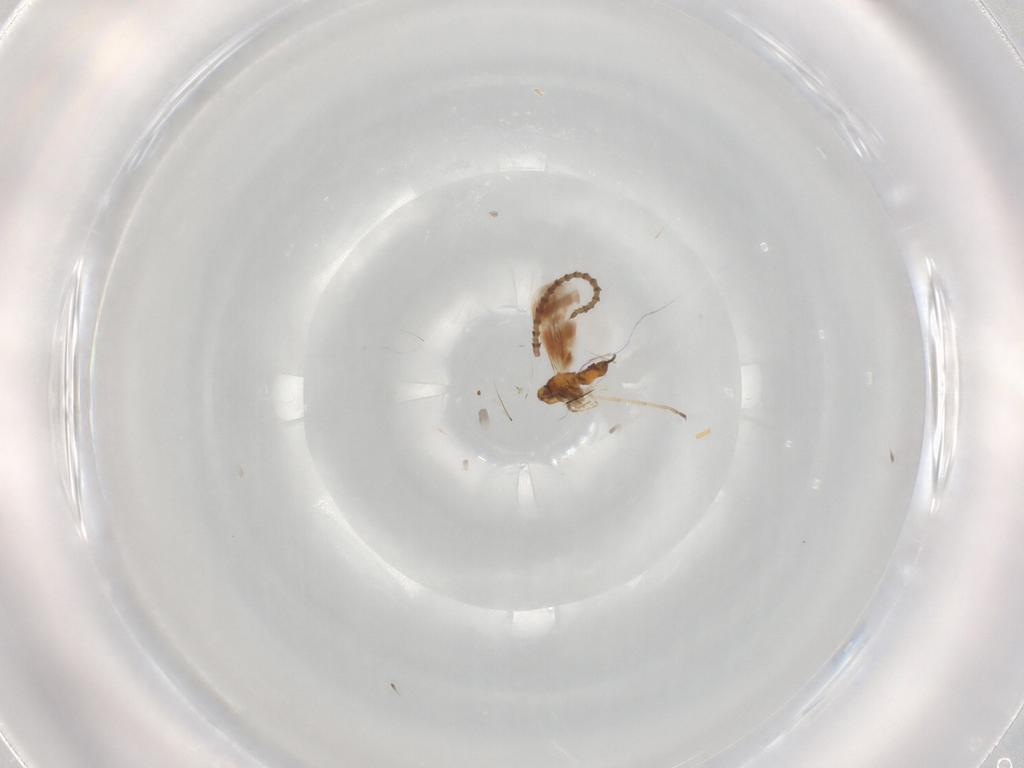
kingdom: Animalia
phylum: Arthropoda
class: Insecta
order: Hemiptera
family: Aleyrodidae
